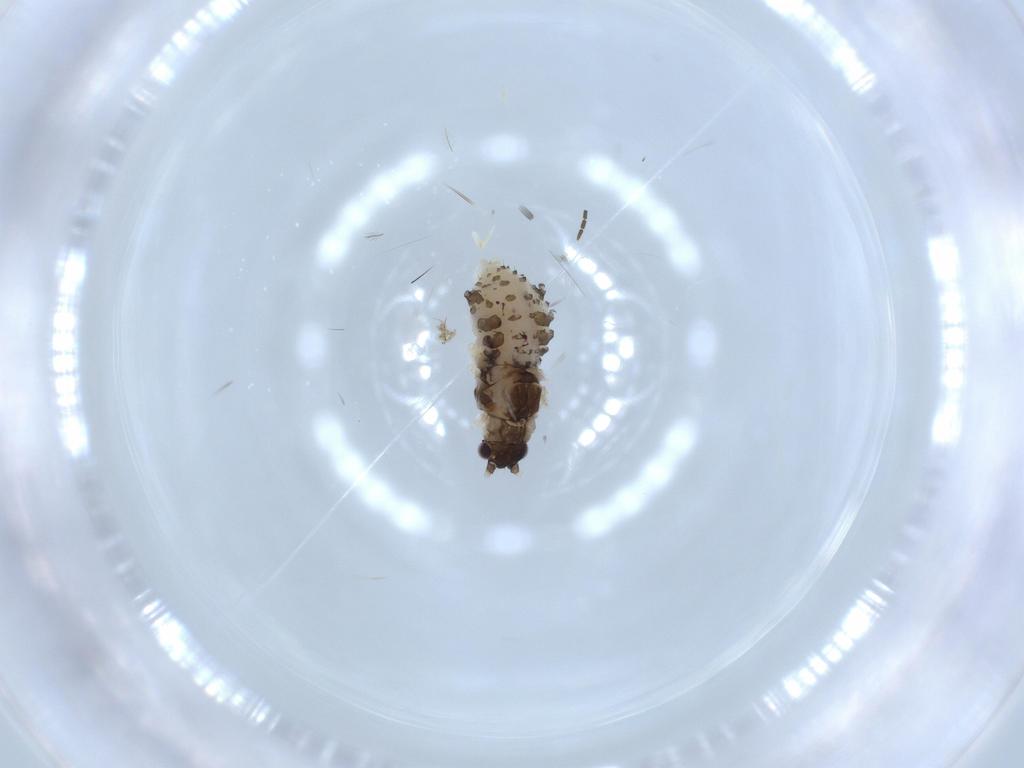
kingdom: Animalia
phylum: Arthropoda
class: Insecta
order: Hemiptera
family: Aphididae
